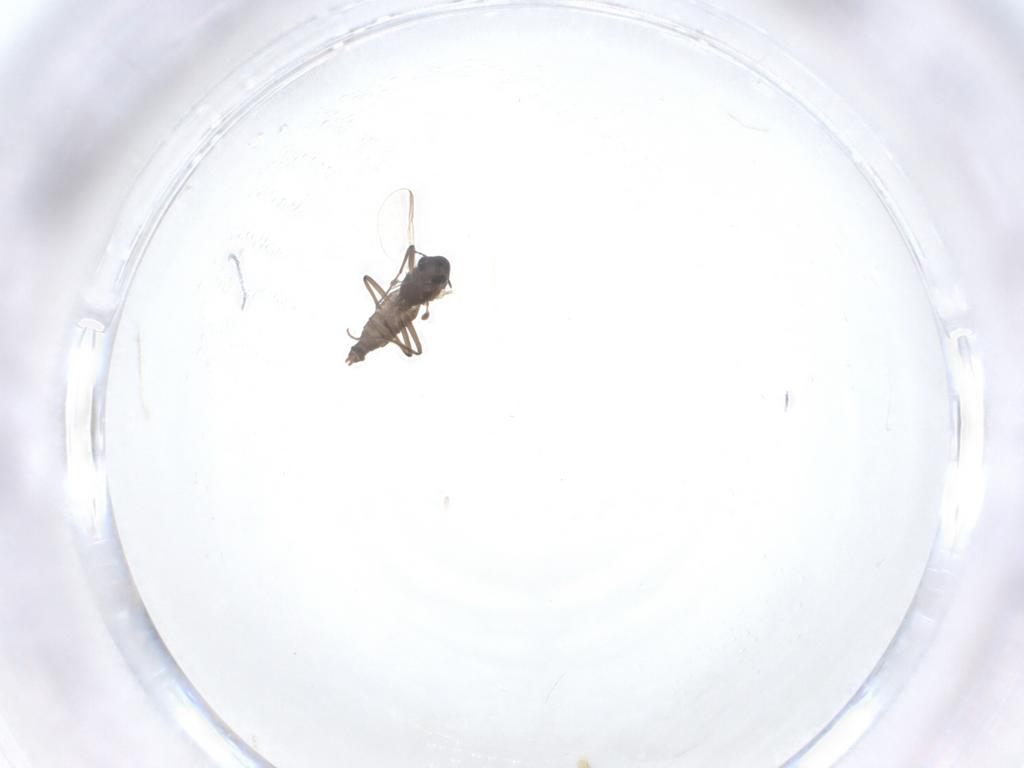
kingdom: Animalia
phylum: Arthropoda
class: Insecta
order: Diptera
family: Chironomidae
